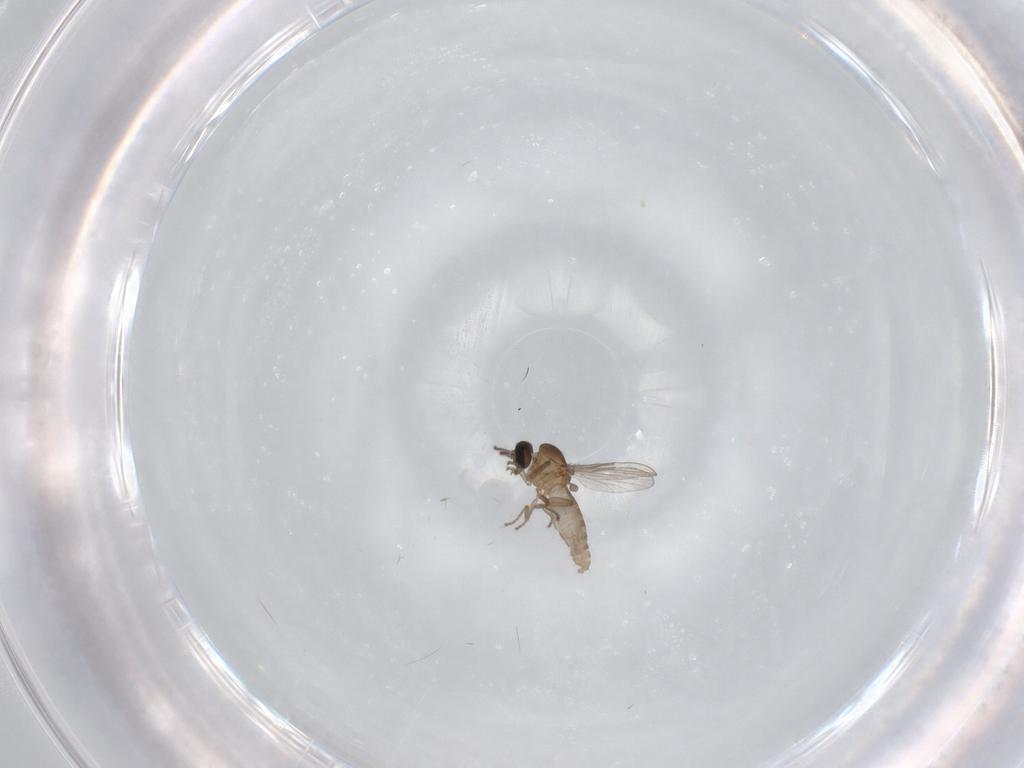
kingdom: Animalia
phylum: Arthropoda
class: Insecta
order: Diptera
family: Ceratopogonidae
